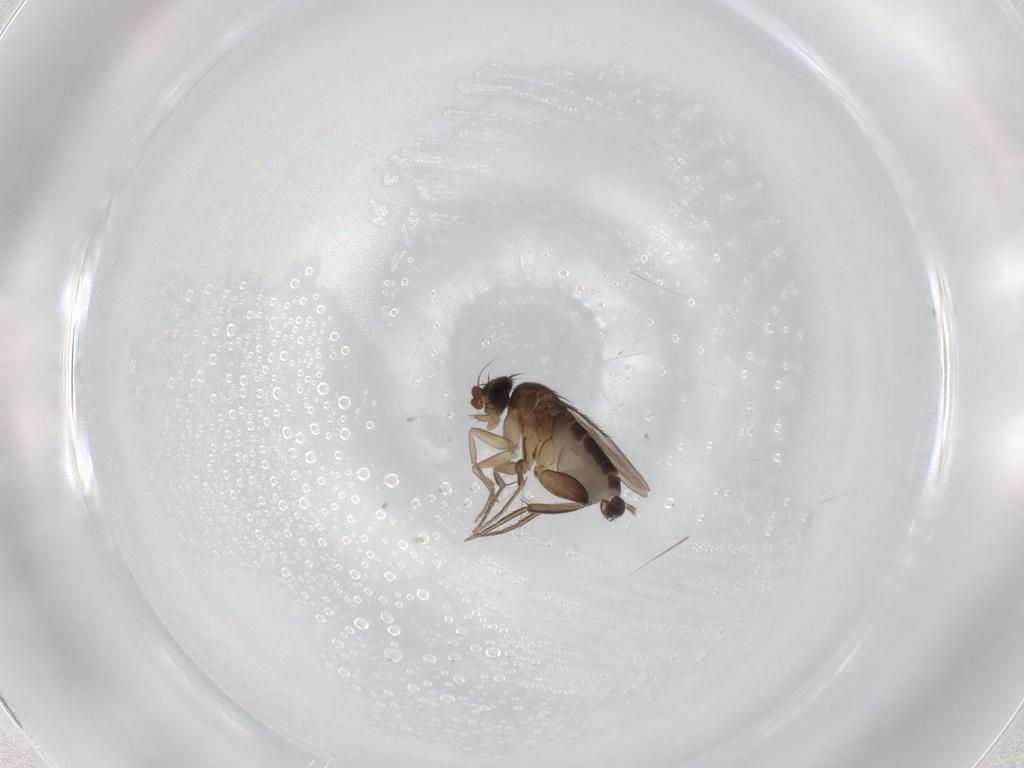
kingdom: Animalia
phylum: Arthropoda
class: Insecta
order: Diptera
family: Phoridae
